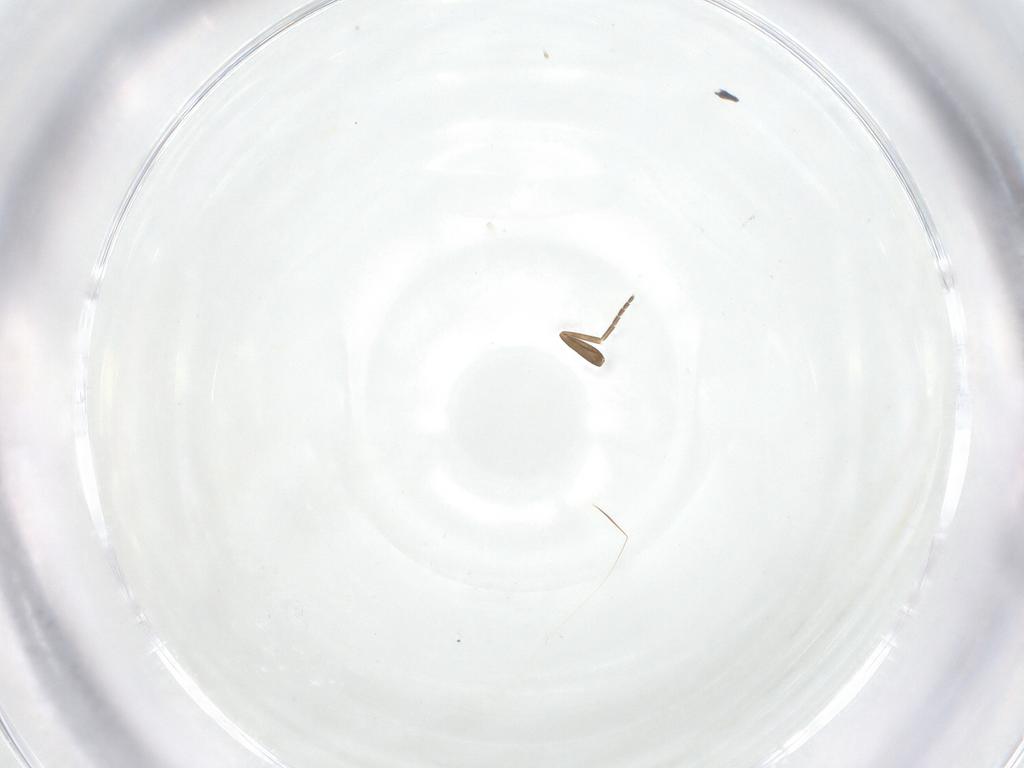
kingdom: Animalia
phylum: Arthropoda
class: Insecta
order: Diptera
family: Phoridae
